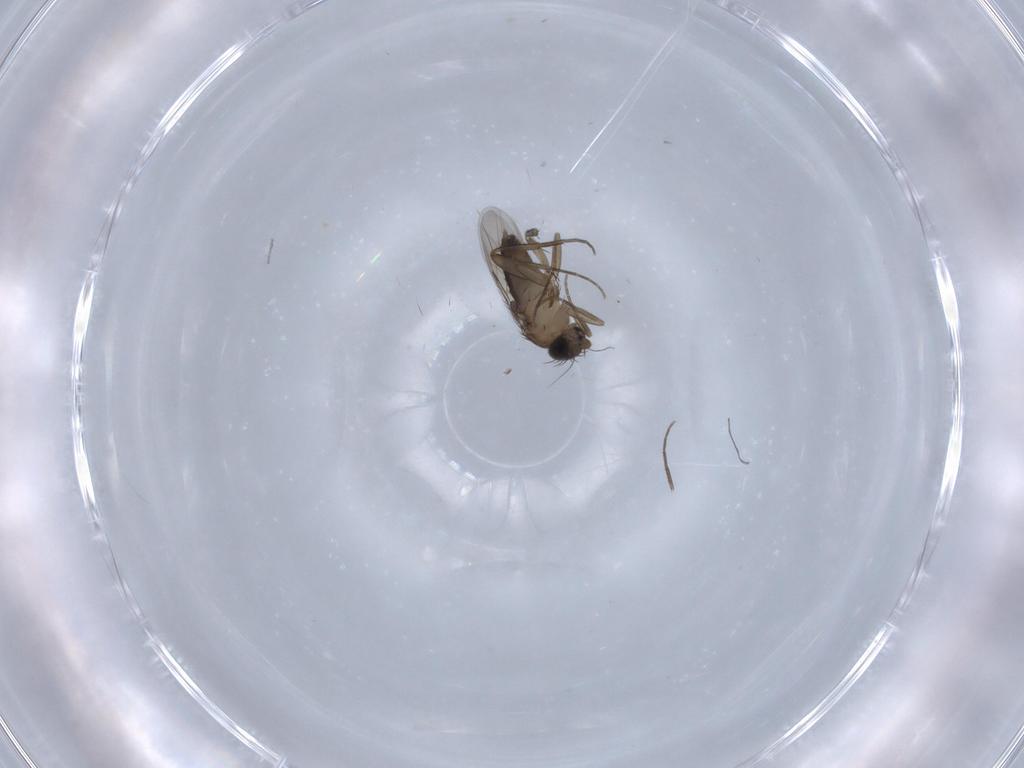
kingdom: Animalia
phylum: Arthropoda
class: Insecta
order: Diptera
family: Phoridae
